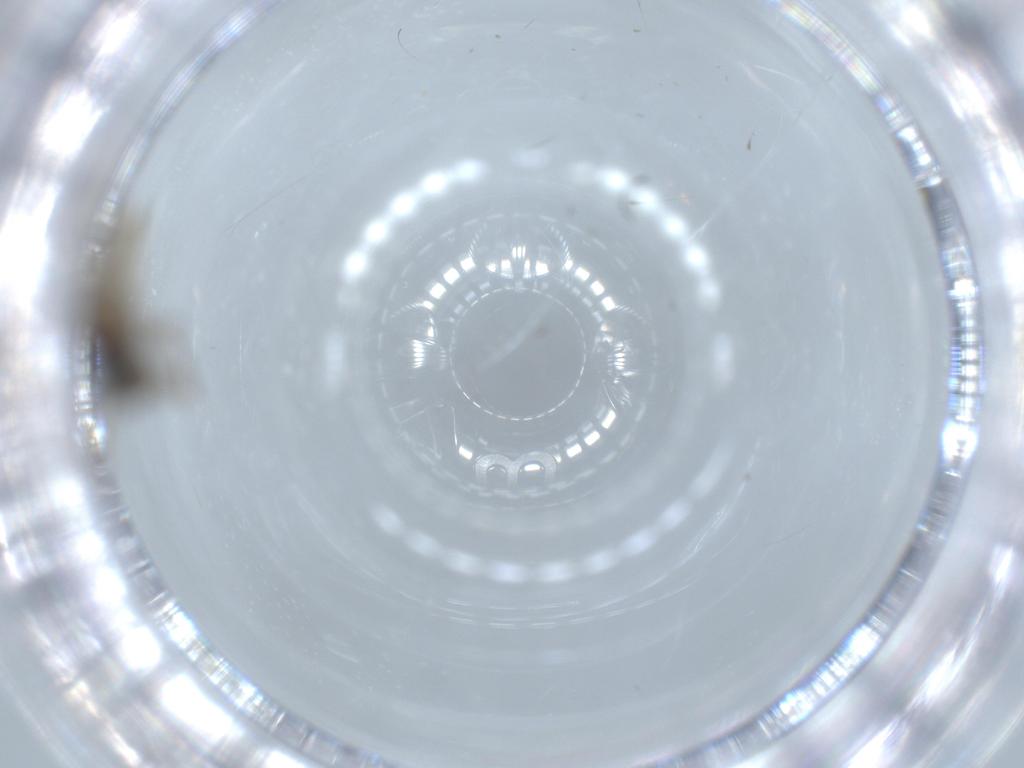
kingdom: Animalia
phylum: Arthropoda
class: Insecta
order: Hemiptera
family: Cicadellidae
